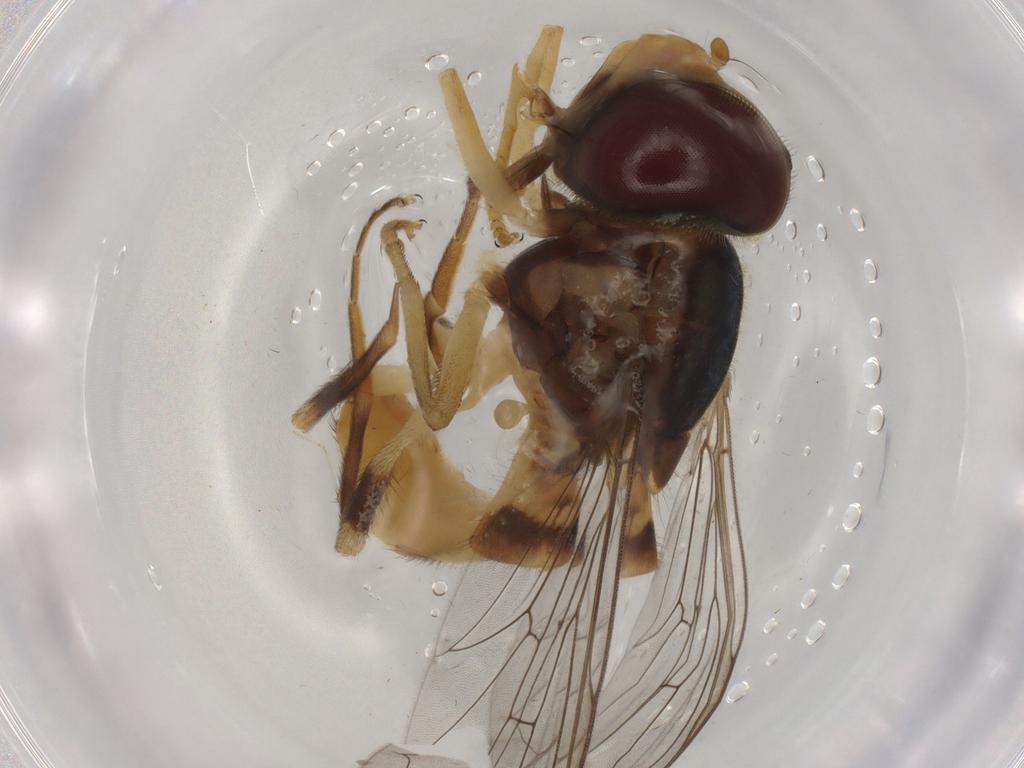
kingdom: Animalia
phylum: Arthropoda
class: Insecta
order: Diptera
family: Syrphidae
